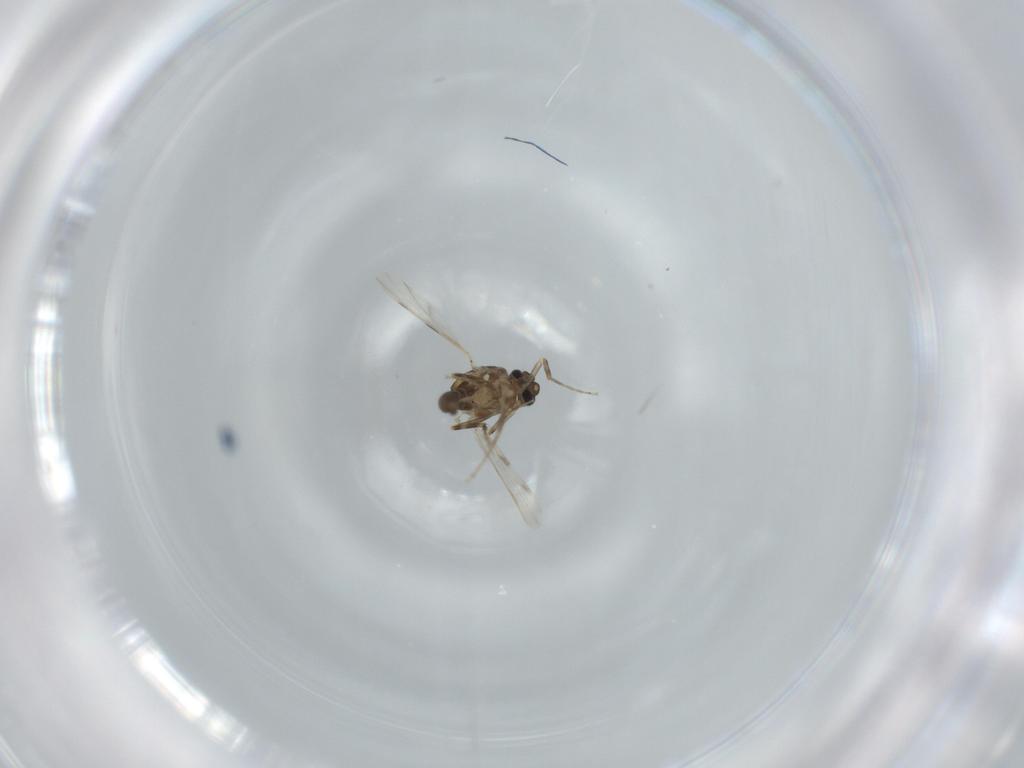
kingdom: Animalia
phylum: Arthropoda
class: Insecta
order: Diptera
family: Ceratopogonidae
